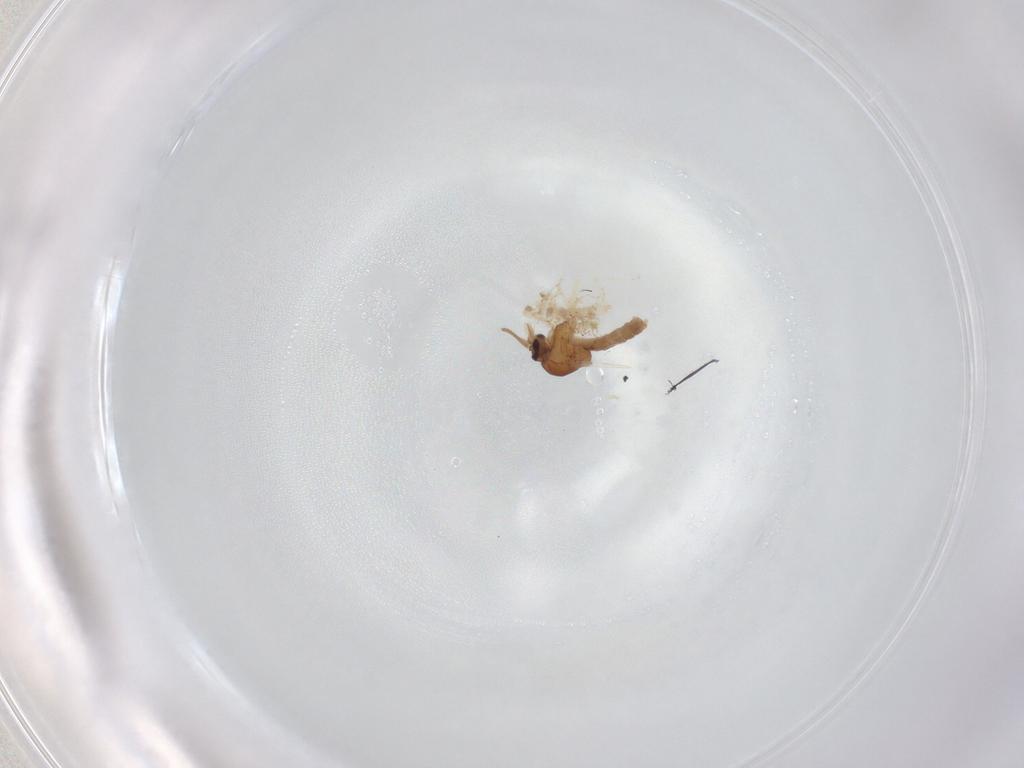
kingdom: Animalia
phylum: Arthropoda
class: Insecta
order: Diptera
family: Ceratopogonidae
